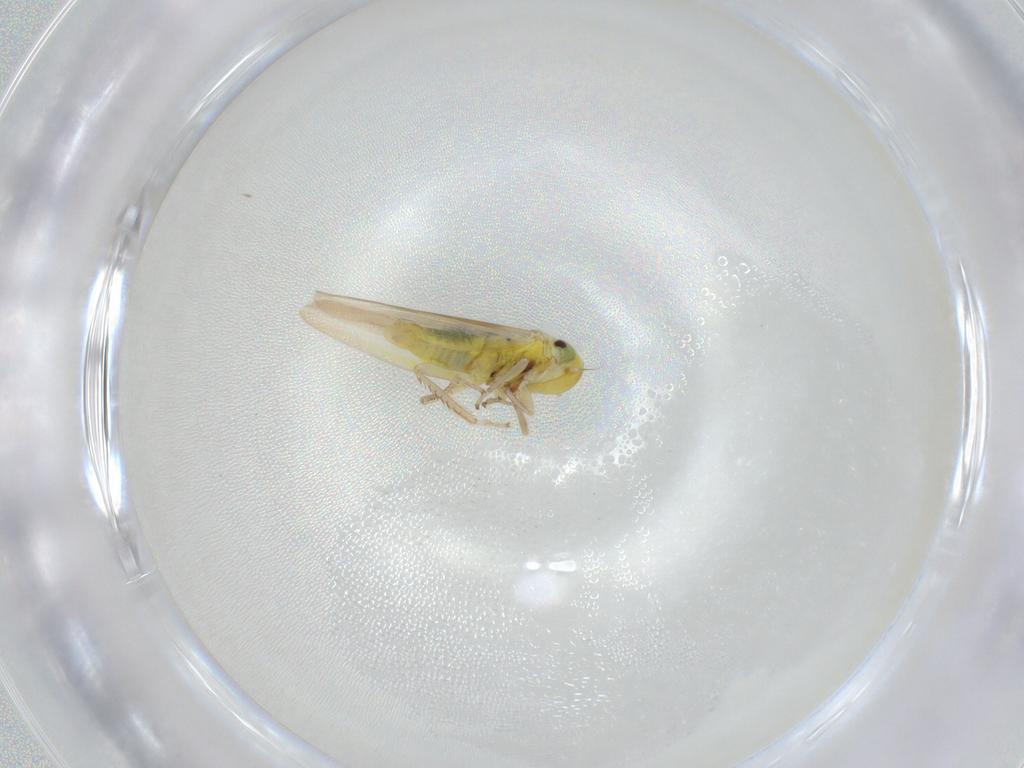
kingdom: Animalia
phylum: Arthropoda
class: Insecta
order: Hemiptera
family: Cicadellidae
